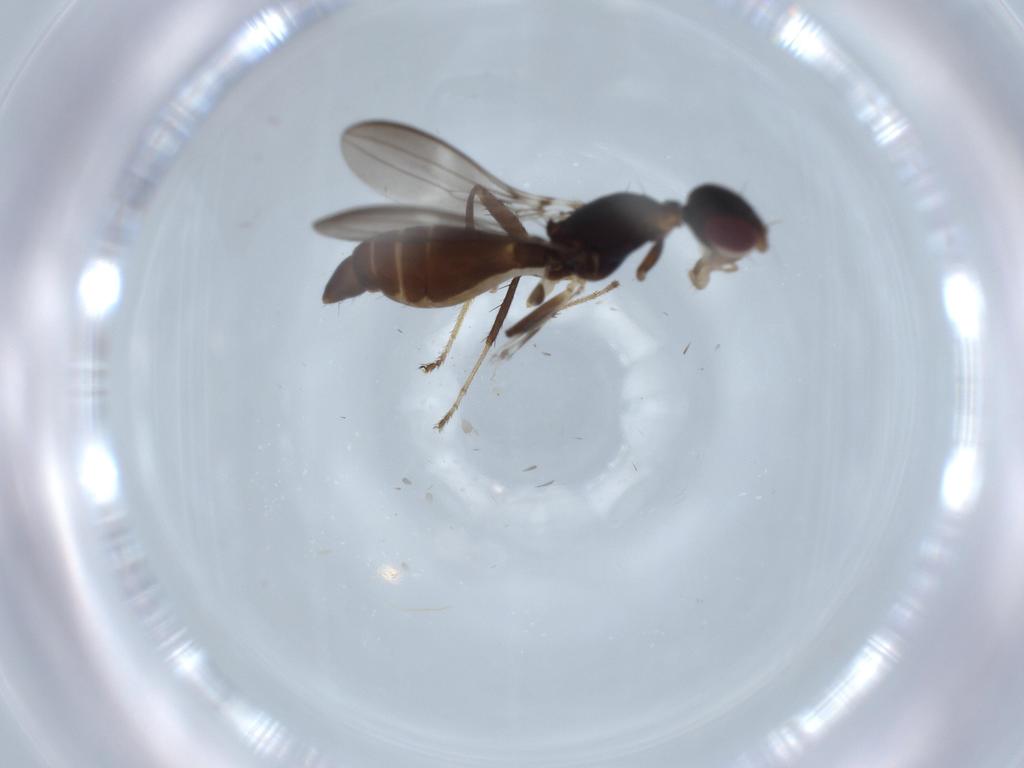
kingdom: Animalia
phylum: Arthropoda
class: Insecta
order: Diptera
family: Chironomidae
